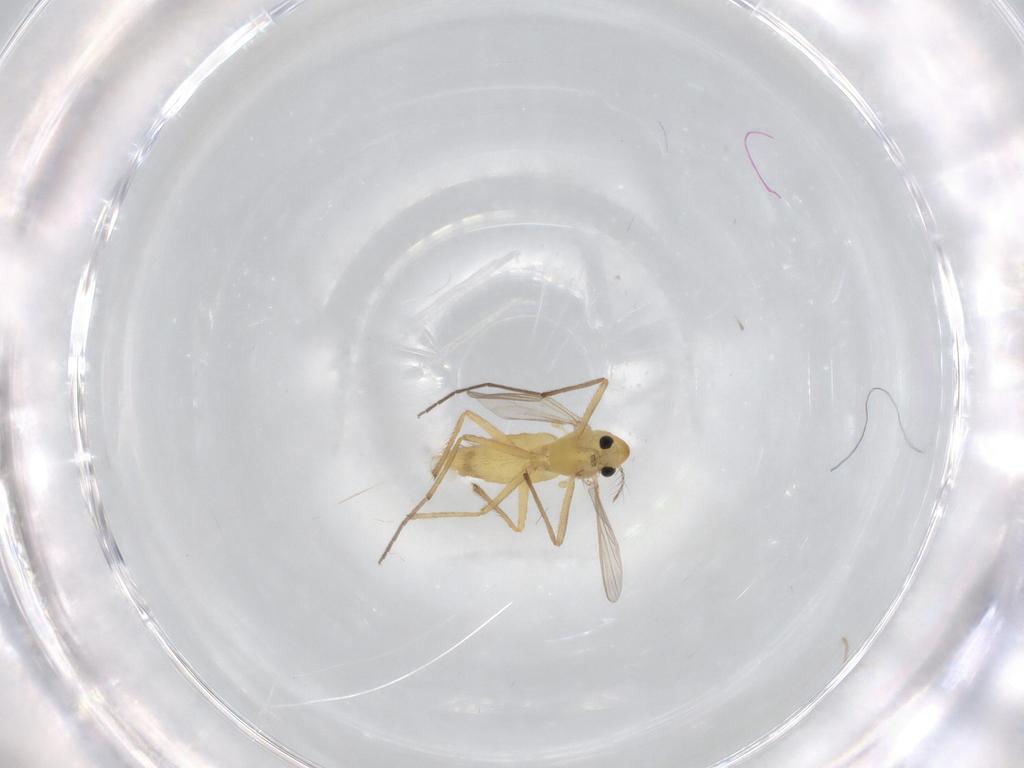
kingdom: Animalia
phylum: Arthropoda
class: Insecta
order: Diptera
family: Chironomidae
